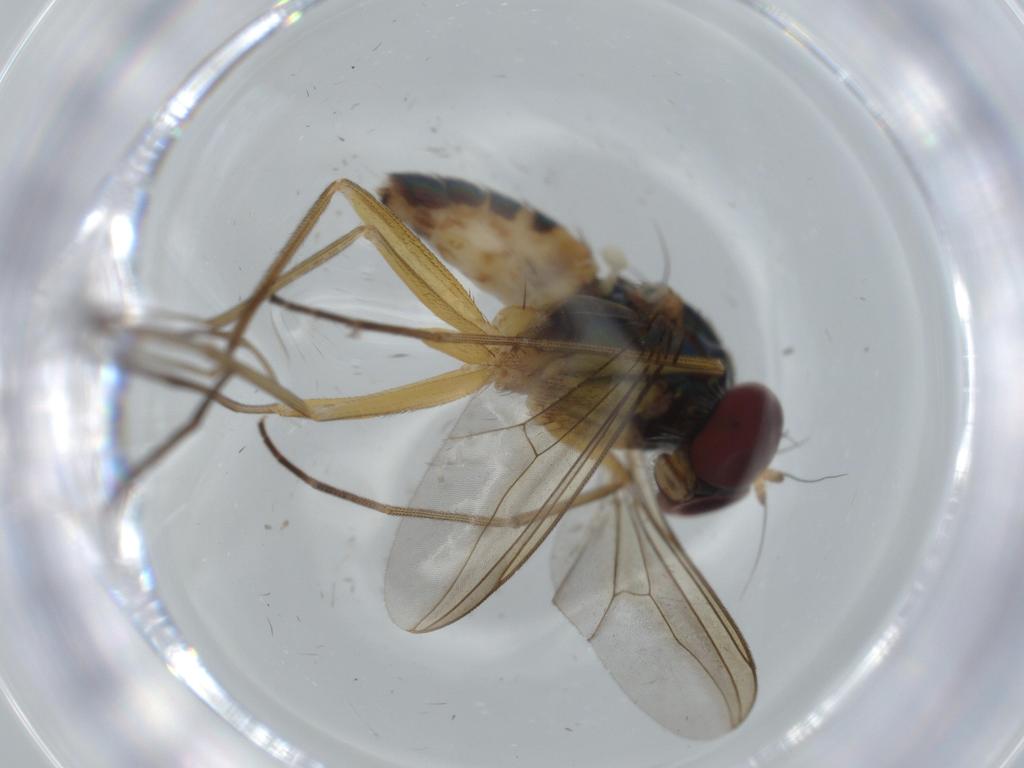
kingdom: Animalia
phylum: Arthropoda
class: Insecta
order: Diptera
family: Dolichopodidae
